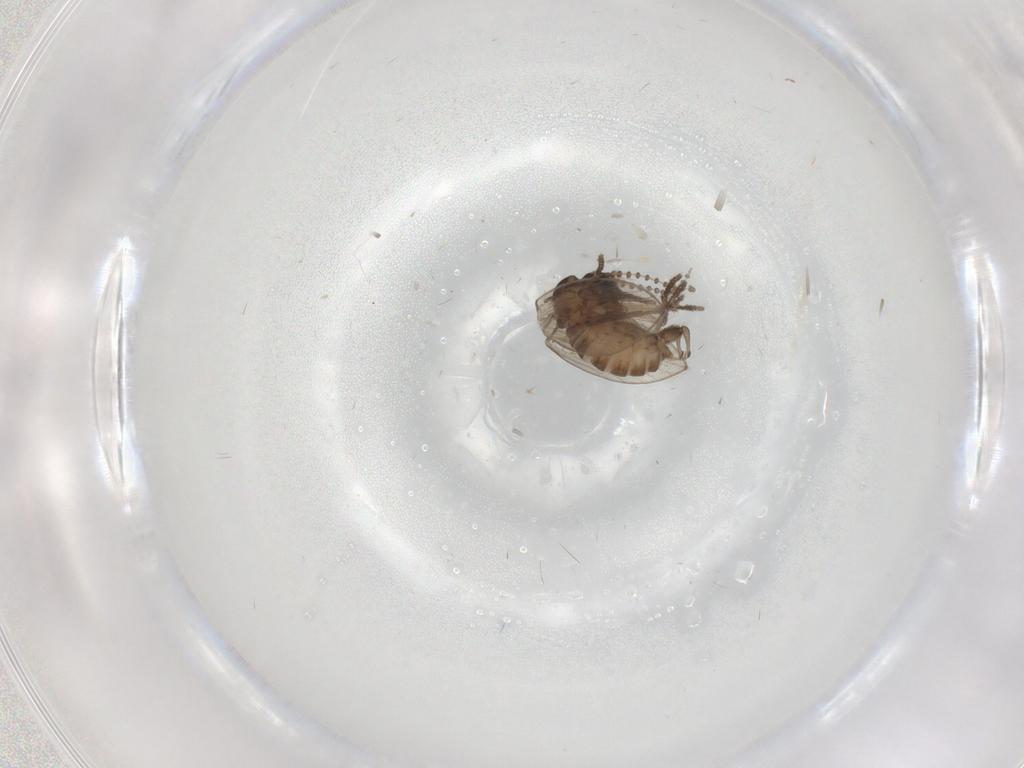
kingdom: Animalia
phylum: Arthropoda
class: Insecta
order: Diptera
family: Psychodidae
